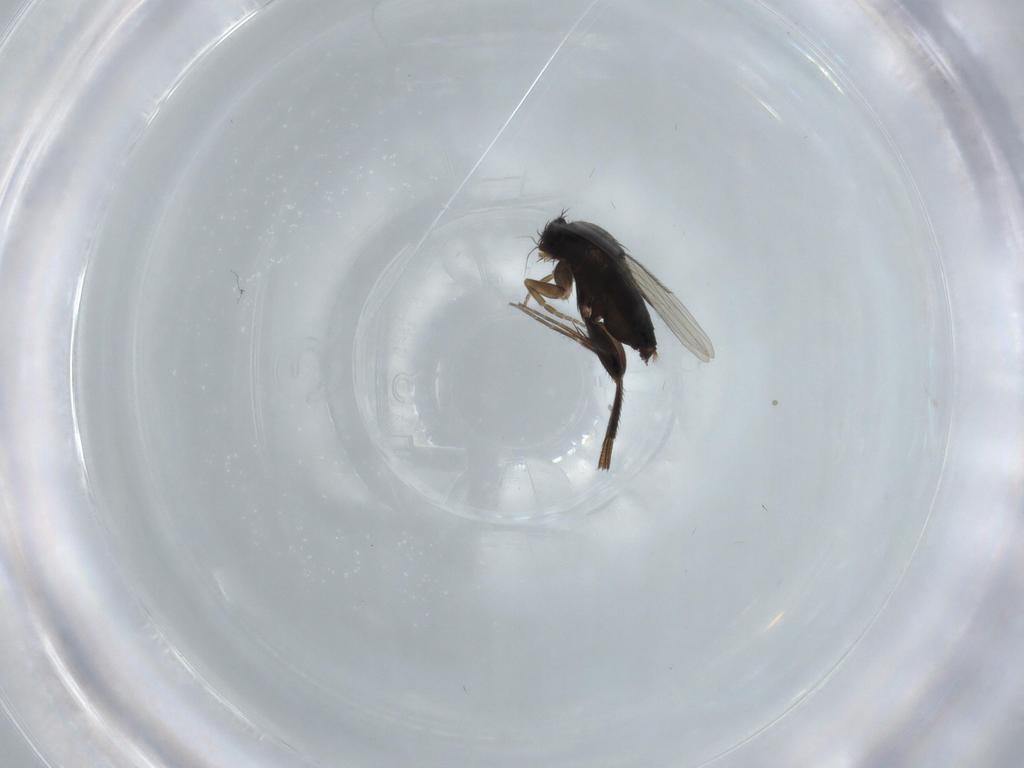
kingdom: Animalia
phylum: Arthropoda
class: Insecta
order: Diptera
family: Phoridae
